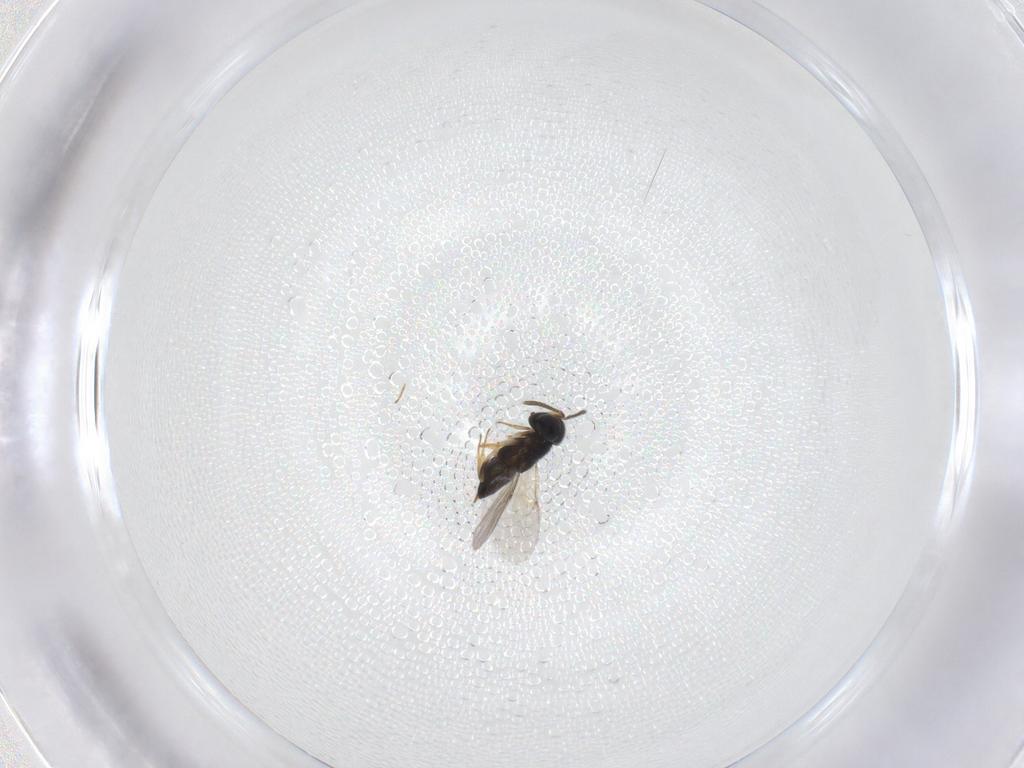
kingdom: Animalia
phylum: Arthropoda
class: Insecta
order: Hymenoptera
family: Encyrtidae
